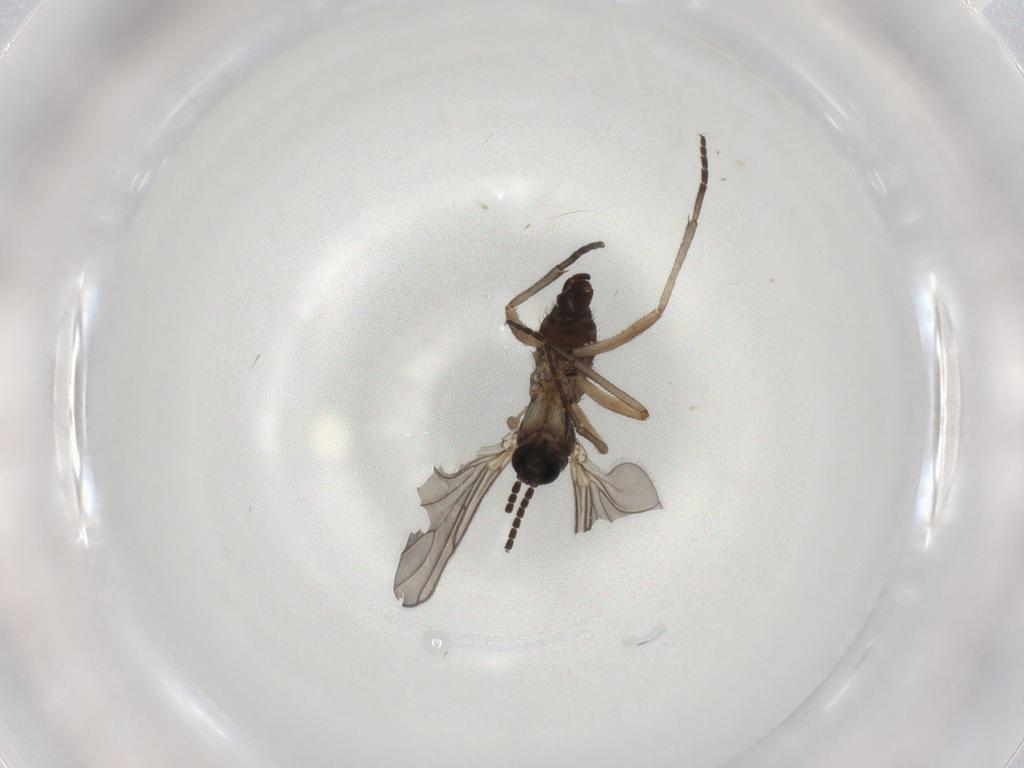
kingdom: Animalia
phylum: Arthropoda
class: Insecta
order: Diptera
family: Sciaridae
